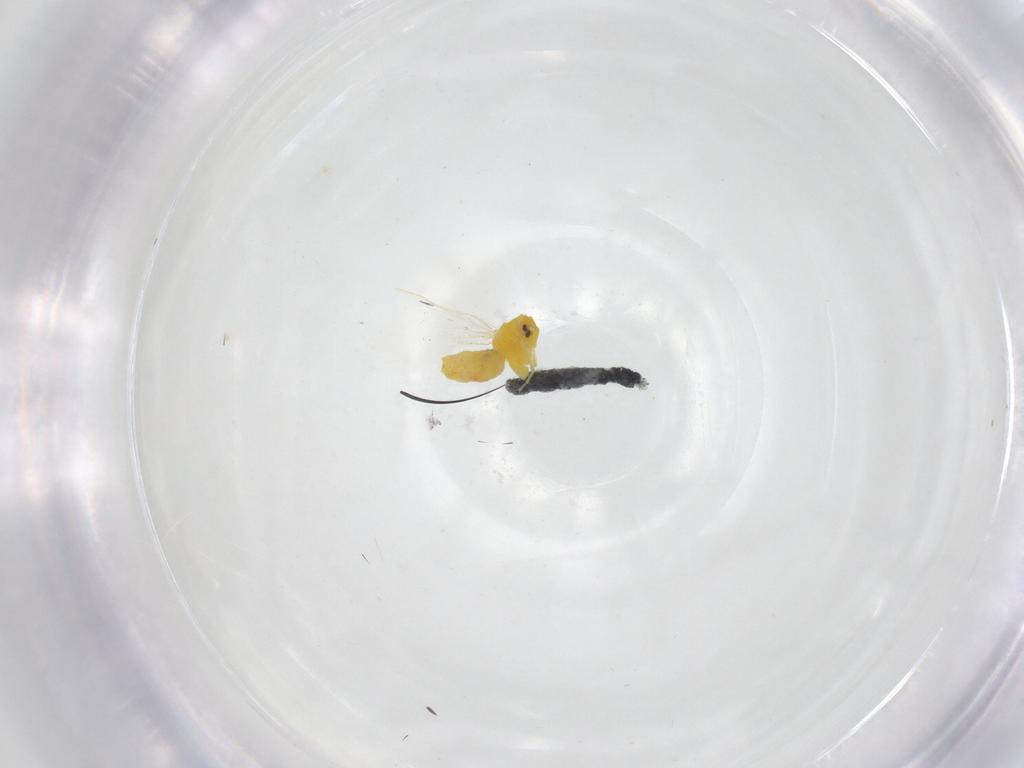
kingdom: Animalia
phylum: Arthropoda
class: Insecta
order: Hemiptera
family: Aleyrodidae
